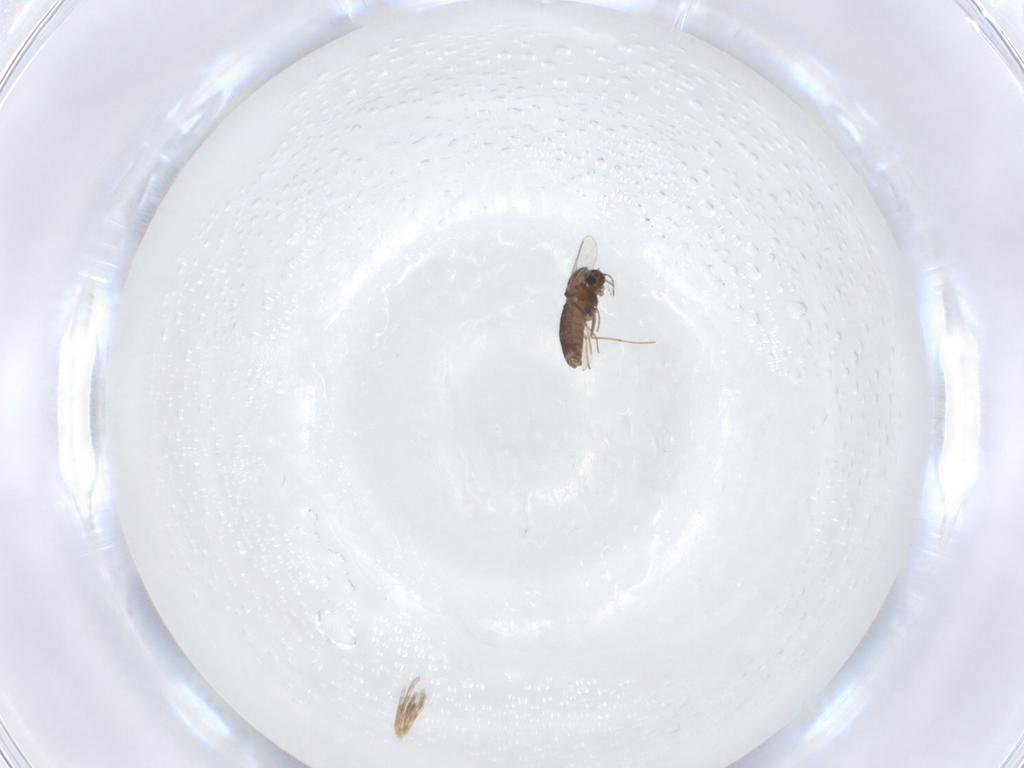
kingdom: Animalia
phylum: Arthropoda
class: Insecta
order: Diptera
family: Chironomidae
